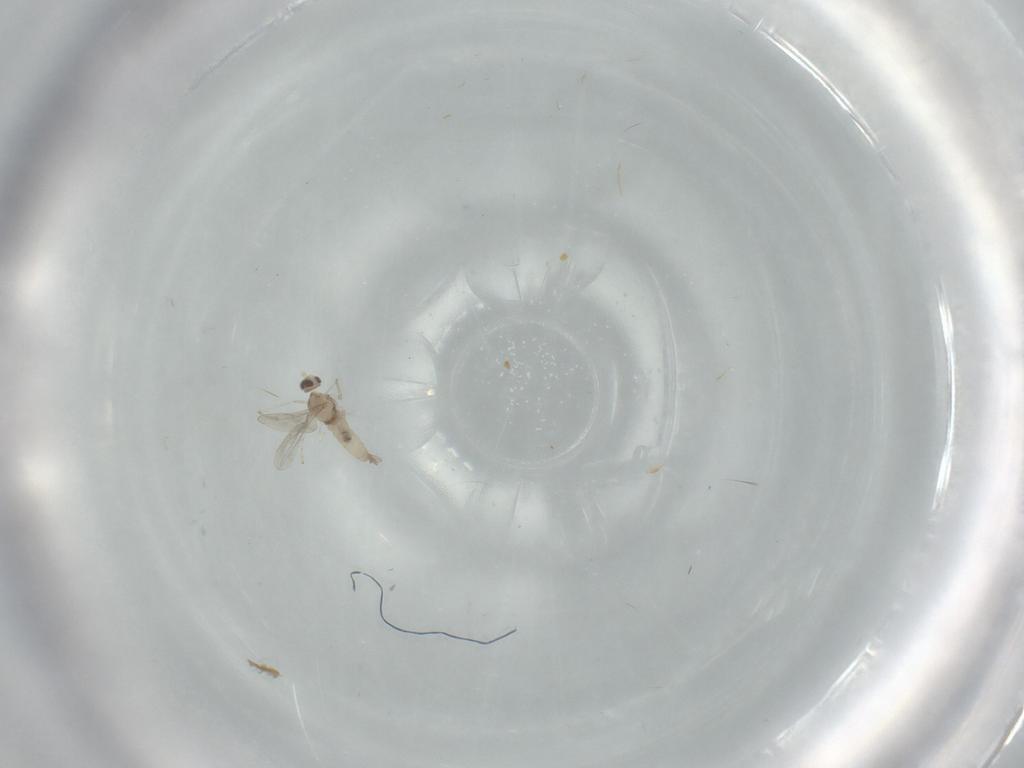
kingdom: Animalia
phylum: Arthropoda
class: Insecta
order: Diptera
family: Cecidomyiidae
